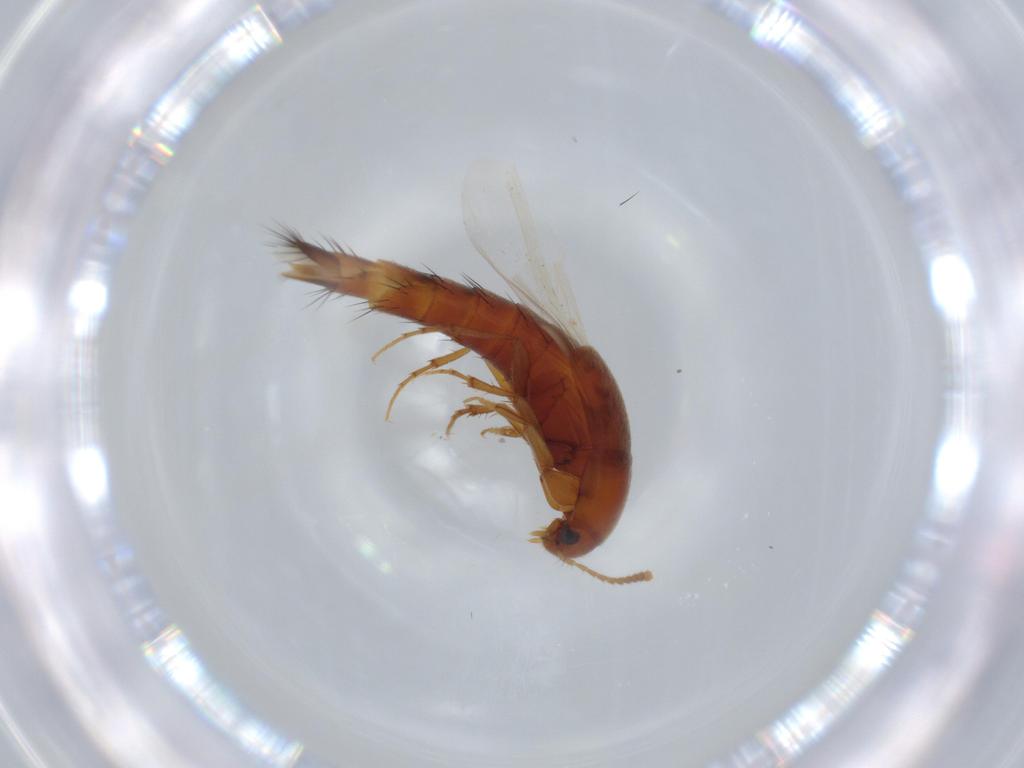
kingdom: Animalia
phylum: Arthropoda
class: Insecta
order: Coleoptera
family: Staphylinidae
